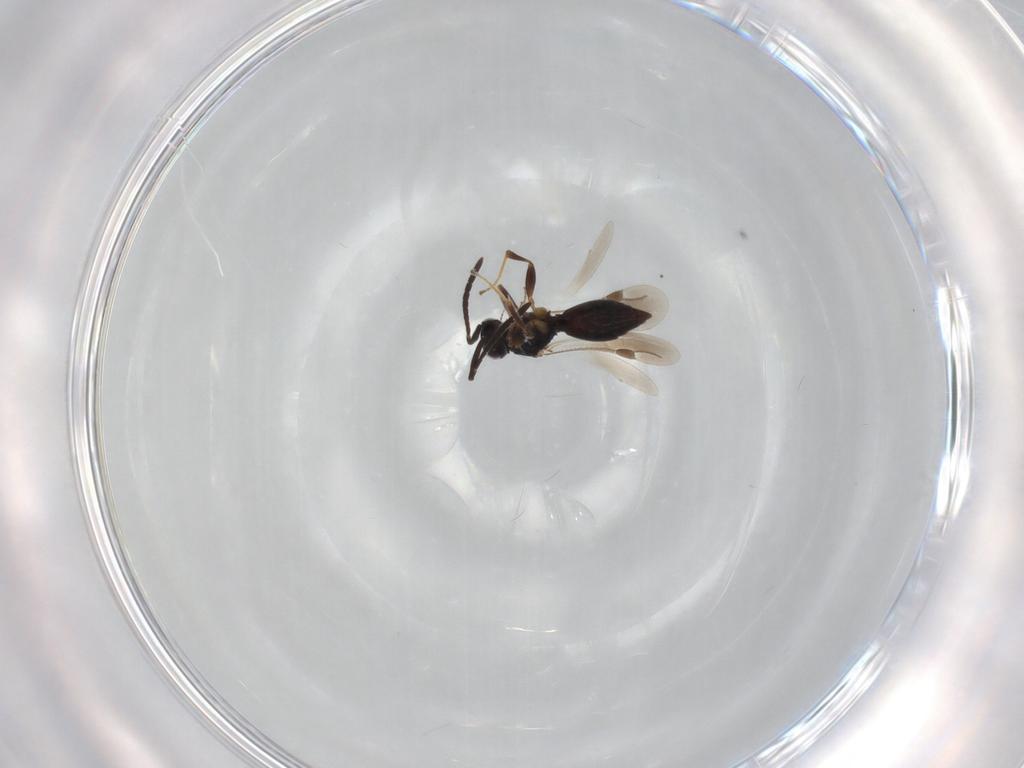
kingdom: Animalia
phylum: Arthropoda
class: Insecta
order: Hymenoptera
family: Megaspilidae
